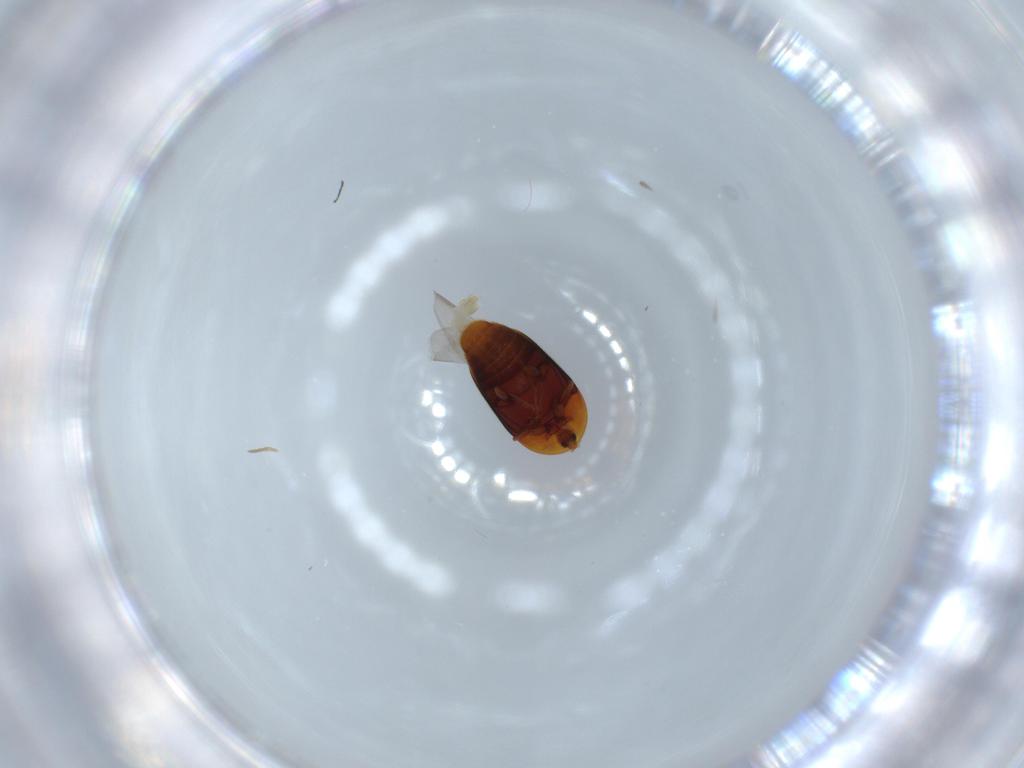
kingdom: Animalia
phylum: Arthropoda
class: Insecta
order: Coleoptera
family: Corylophidae
